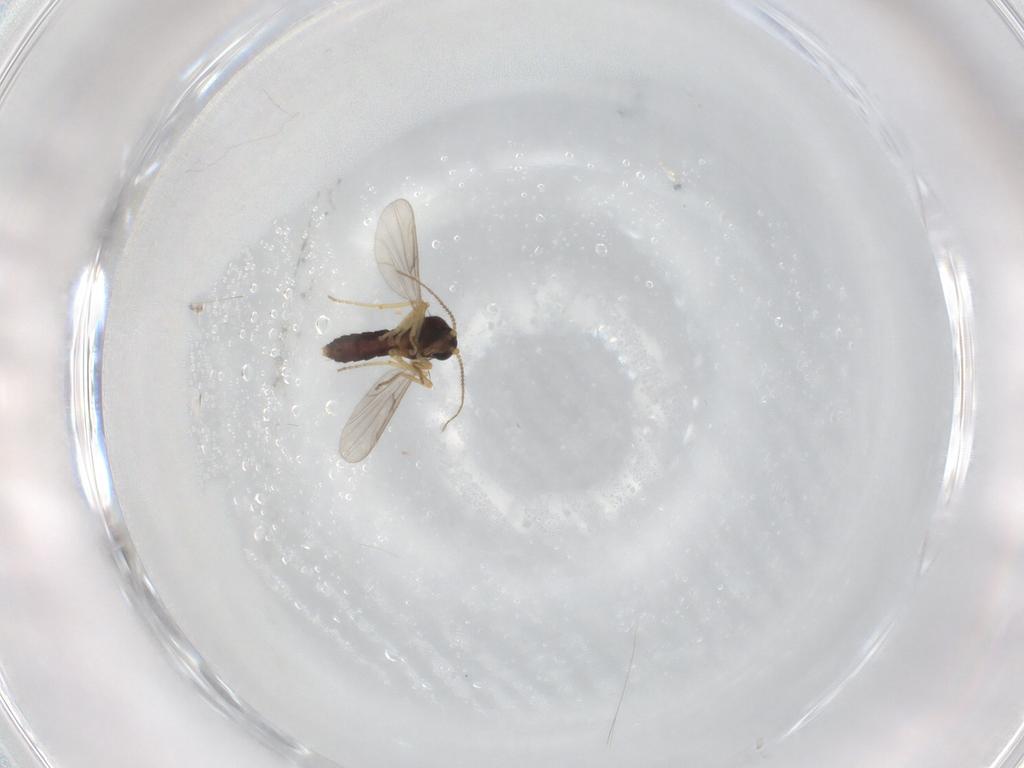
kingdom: Animalia
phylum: Arthropoda
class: Insecta
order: Diptera
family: Ceratopogonidae
